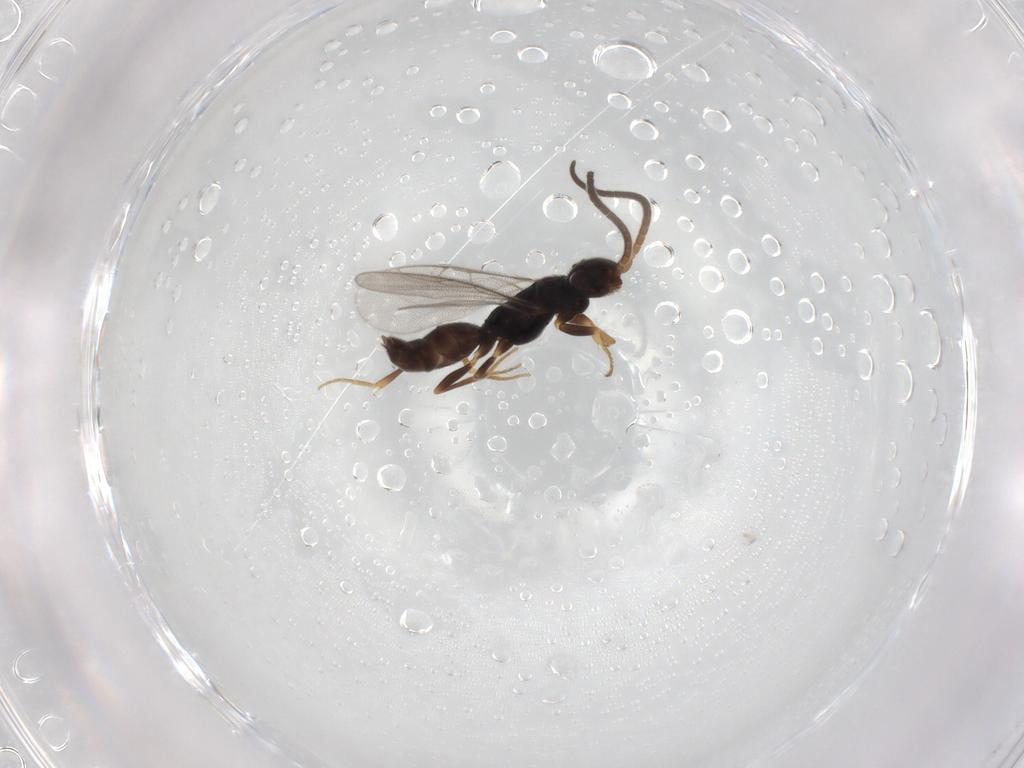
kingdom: Animalia
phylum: Arthropoda
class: Insecta
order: Hymenoptera
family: Sclerogibbidae
